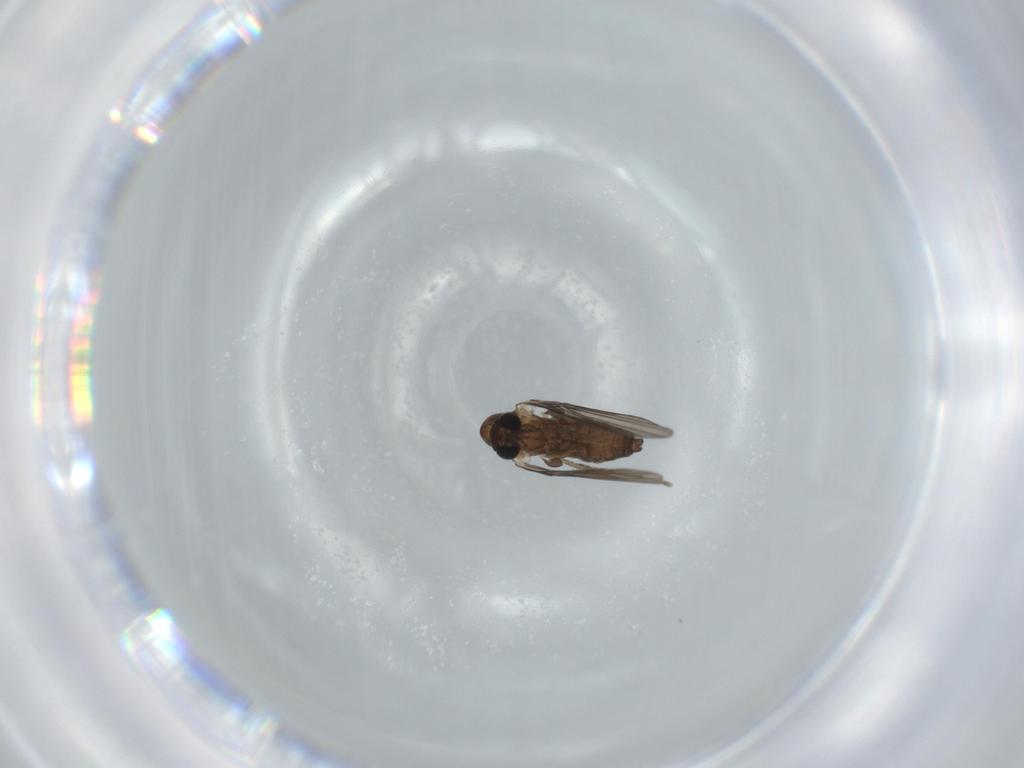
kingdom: Animalia
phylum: Arthropoda
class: Insecta
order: Diptera
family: Psychodidae
